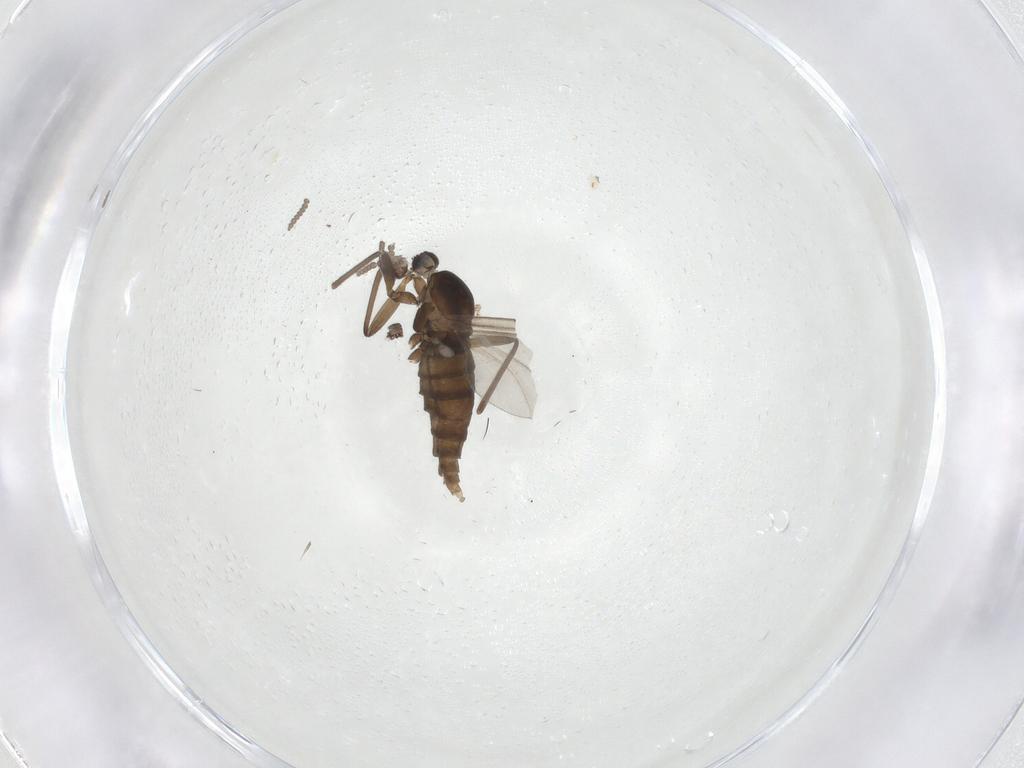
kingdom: Animalia
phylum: Arthropoda
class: Insecta
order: Diptera
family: Cecidomyiidae
